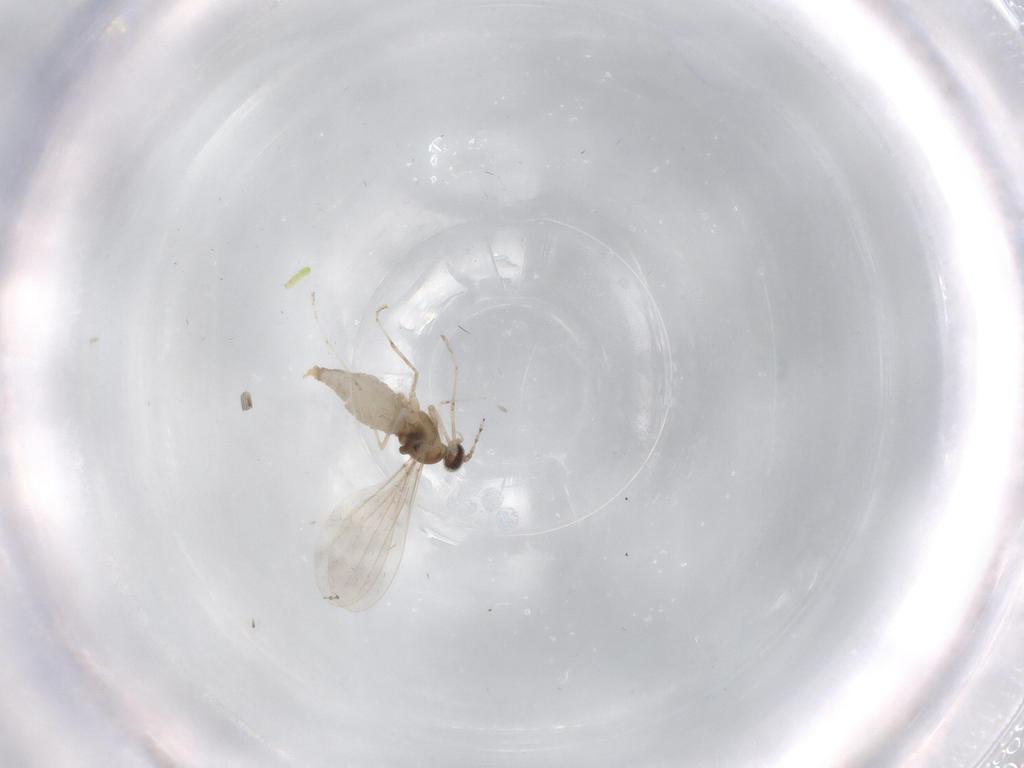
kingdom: Animalia
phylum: Arthropoda
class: Insecta
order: Diptera
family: Cecidomyiidae
